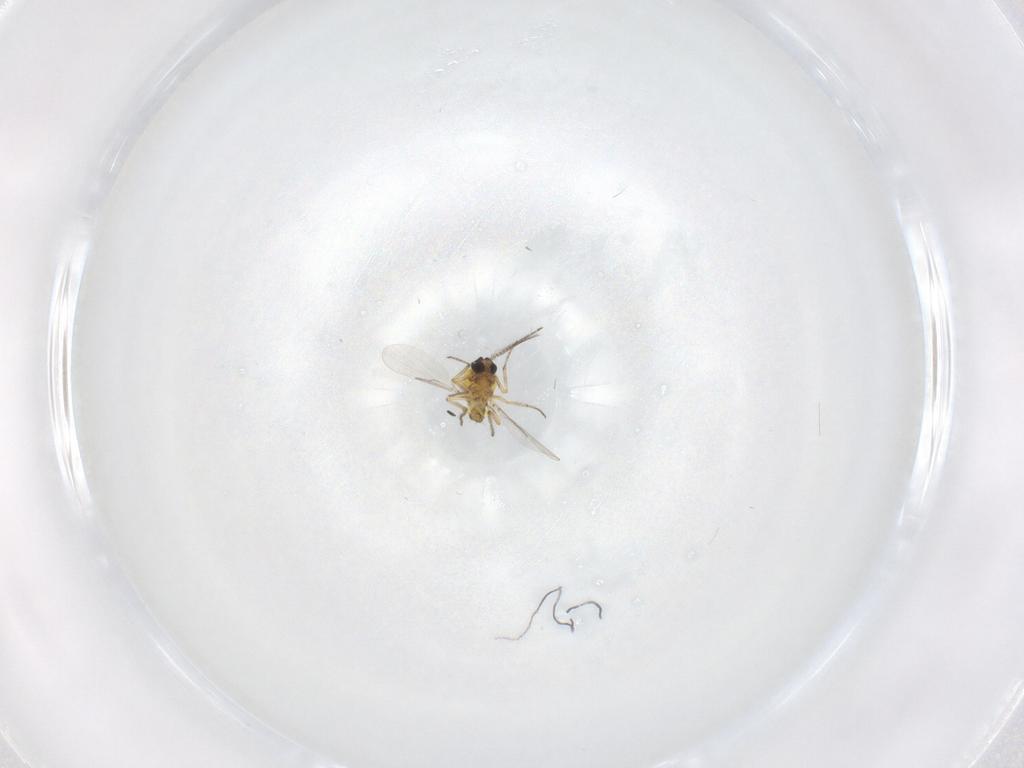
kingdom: Animalia
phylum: Arthropoda
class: Insecta
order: Diptera
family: Ceratopogonidae
